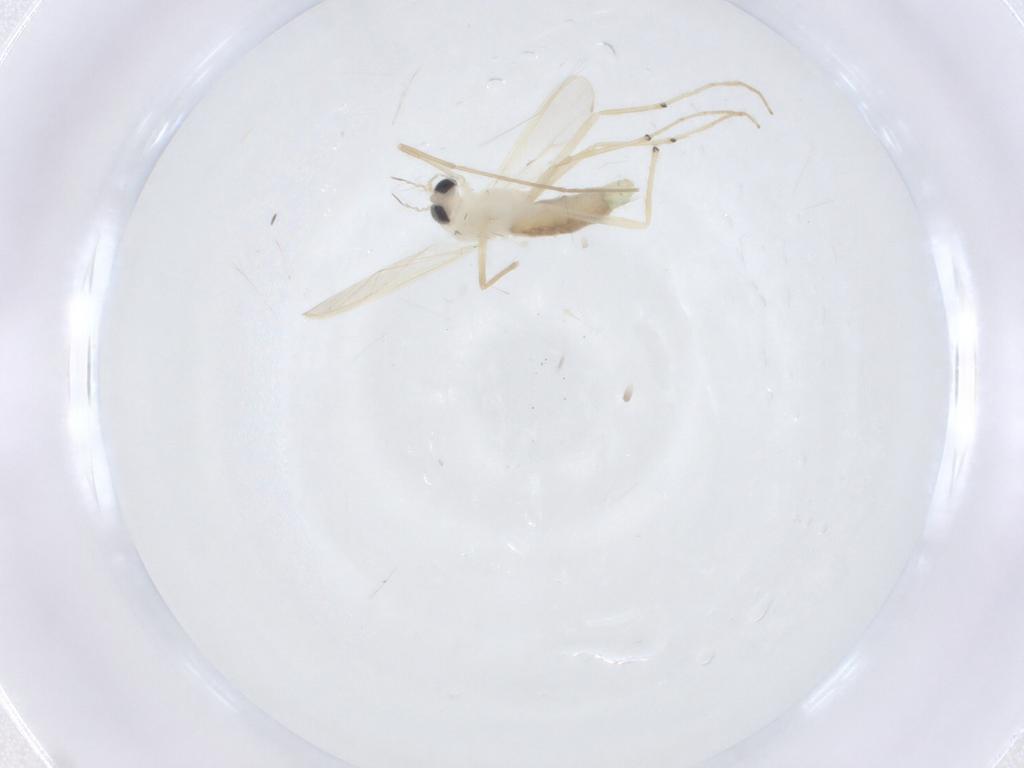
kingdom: Animalia
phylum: Arthropoda
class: Insecta
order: Diptera
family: Chironomidae
